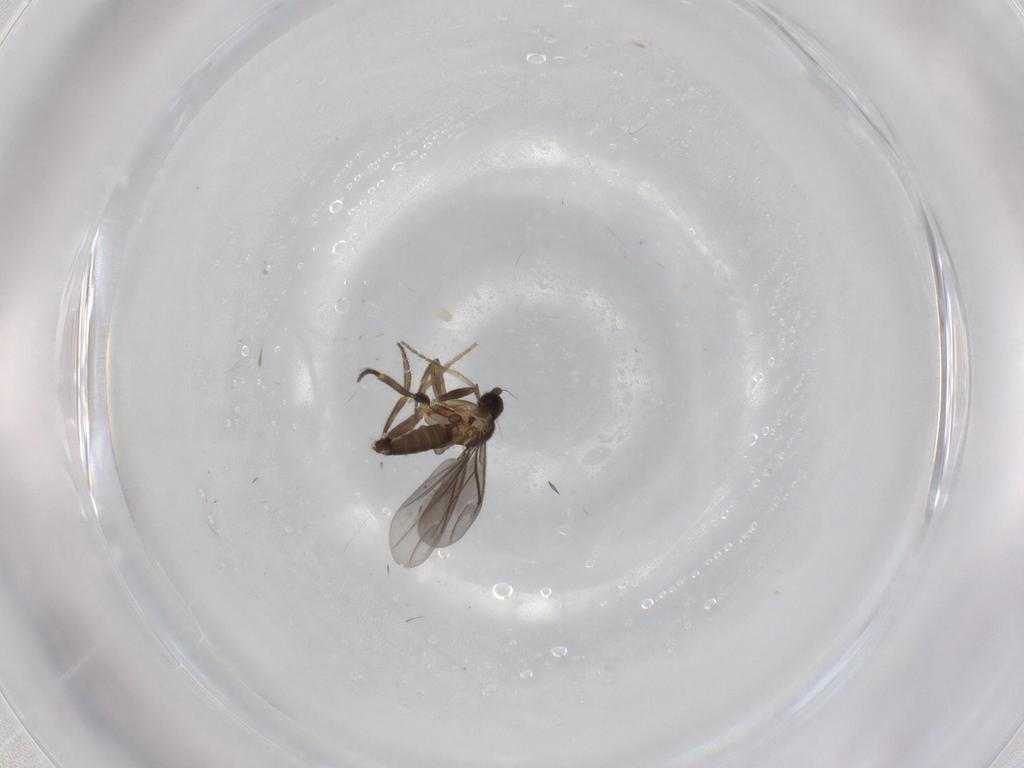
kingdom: Animalia
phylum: Arthropoda
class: Insecta
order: Diptera
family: Phoridae
